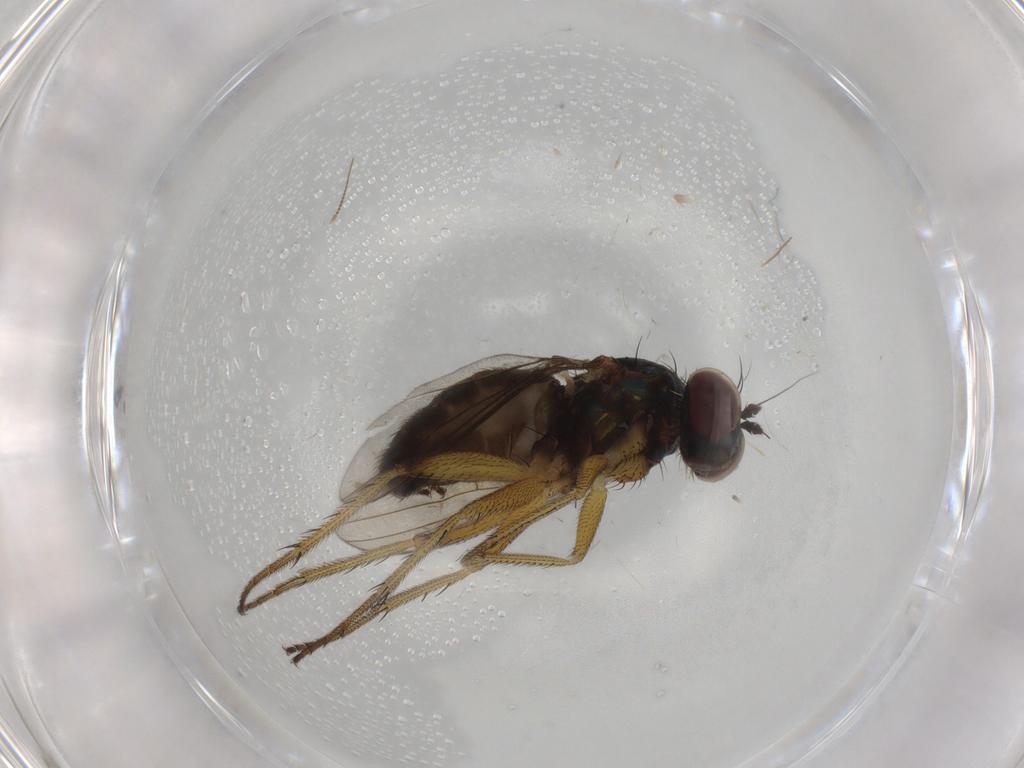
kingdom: Animalia
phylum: Arthropoda
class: Insecta
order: Diptera
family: Dolichopodidae
